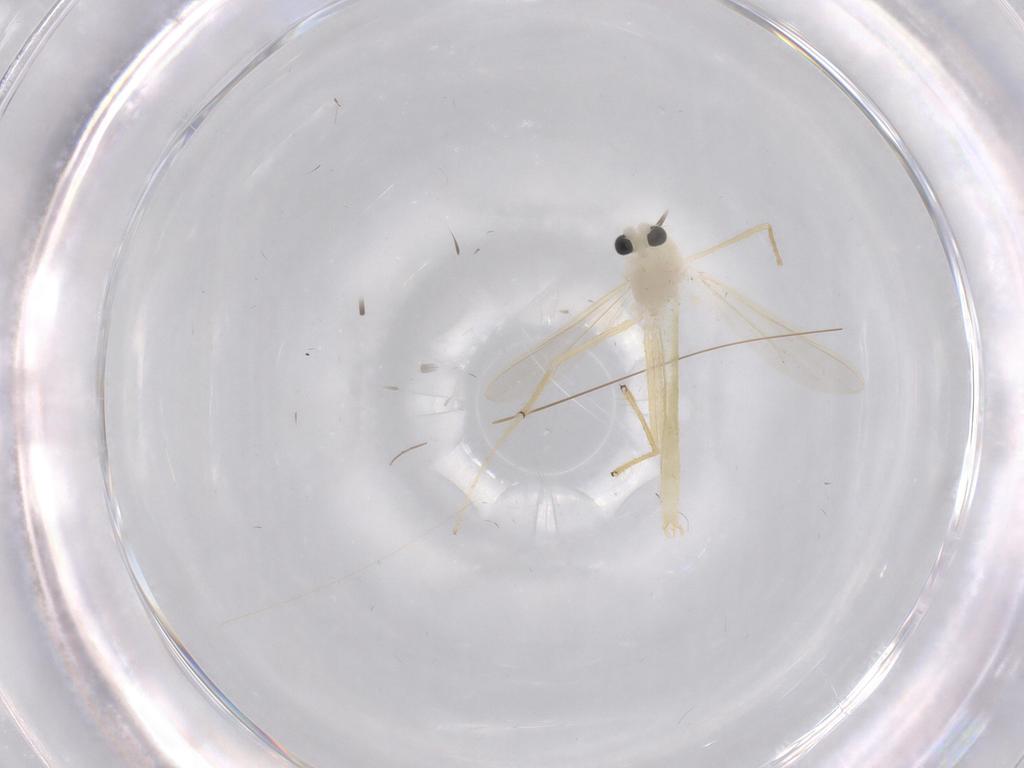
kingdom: Animalia
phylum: Arthropoda
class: Insecta
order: Diptera
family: Chironomidae
